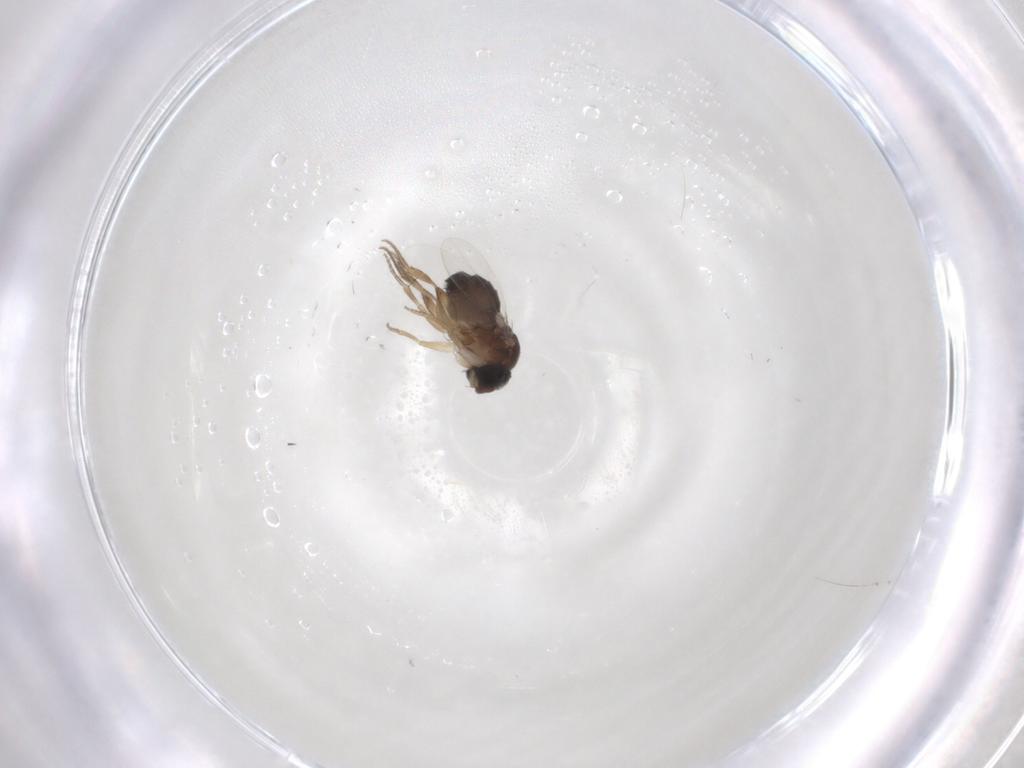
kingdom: Animalia
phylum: Arthropoda
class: Insecta
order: Diptera
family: Phoridae
